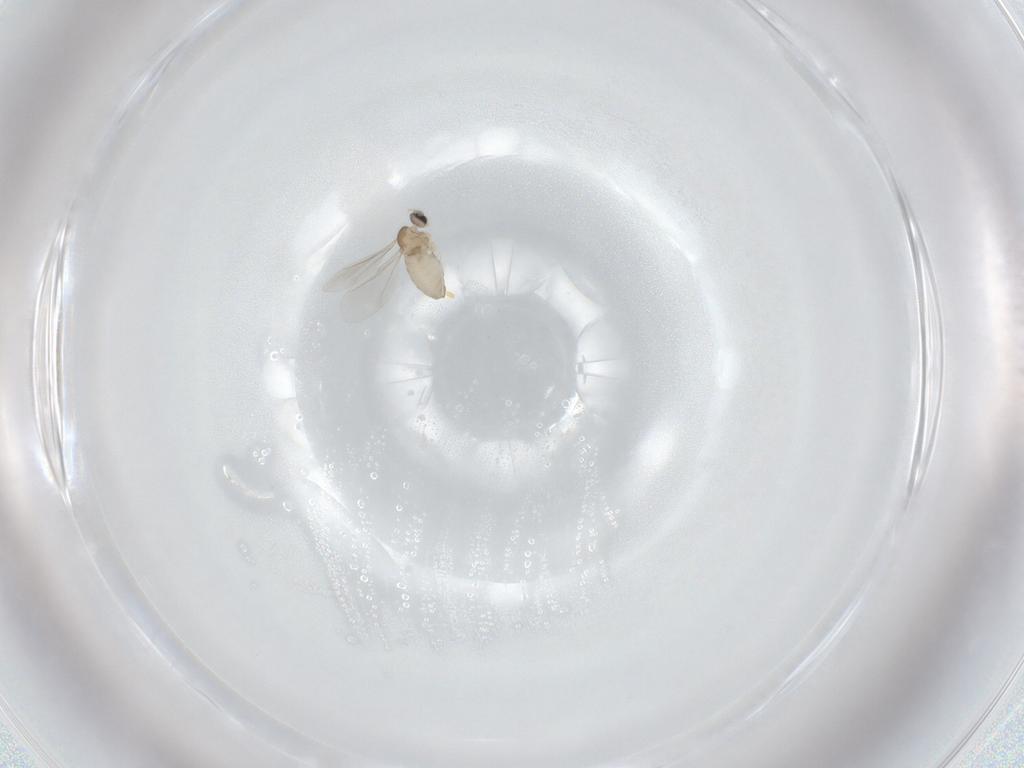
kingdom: Animalia
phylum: Arthropoda
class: Insecta
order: Diptera
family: Cecidomyiidae
